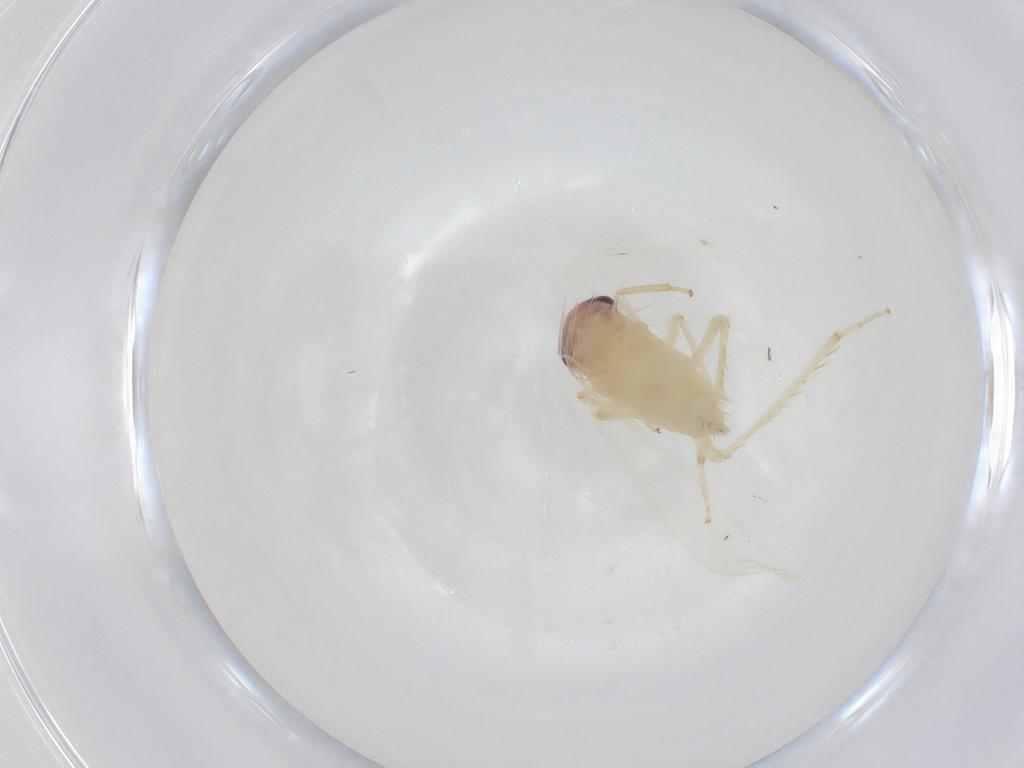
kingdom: Animalia
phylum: Arthropoda
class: Insecta
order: Hemiptera
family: Cicadellidae
